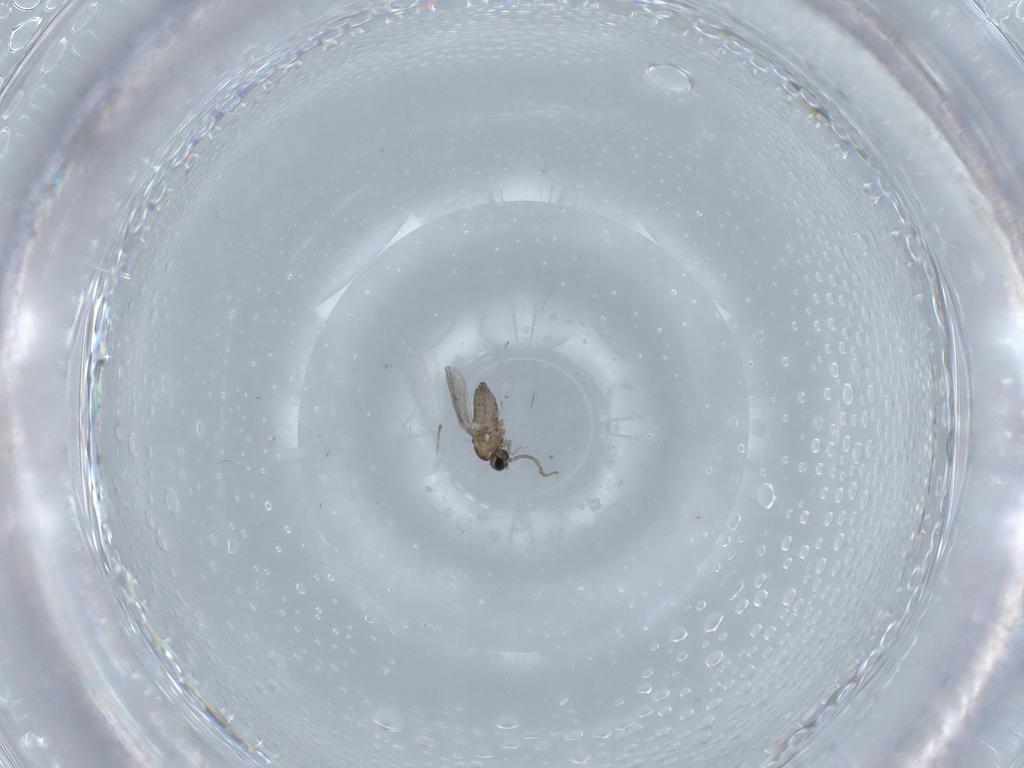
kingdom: Animalia
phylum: Arthropoda
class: Insecta
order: Diptera
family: Cecidomyiidae
